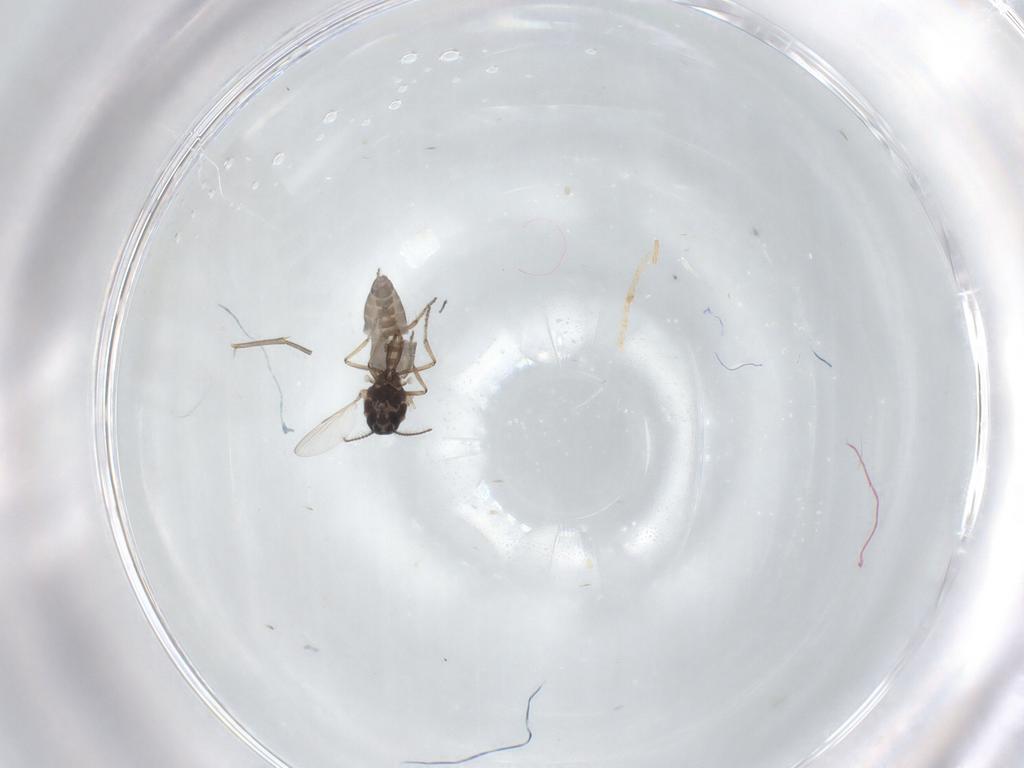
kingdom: Animalia
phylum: Arthropoda
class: Insecta
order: Diptera
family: Ceratopogonidae
